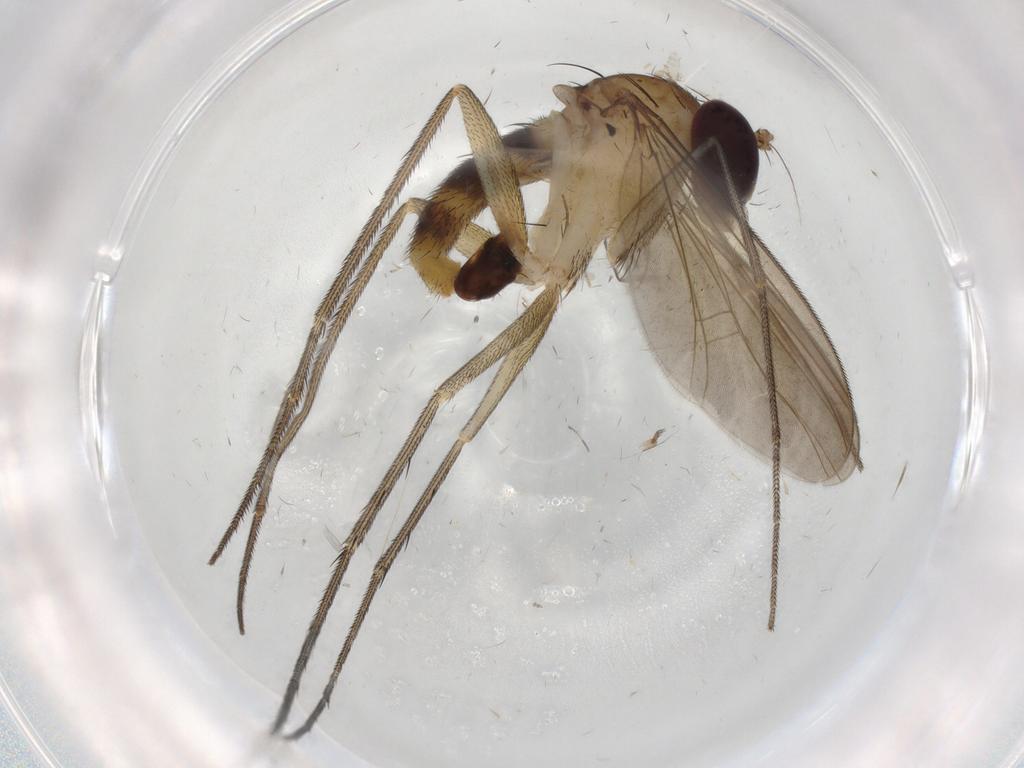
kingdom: Animalia
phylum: Arthropoda
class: Insecta
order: Diptera
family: Dolichopodidae
